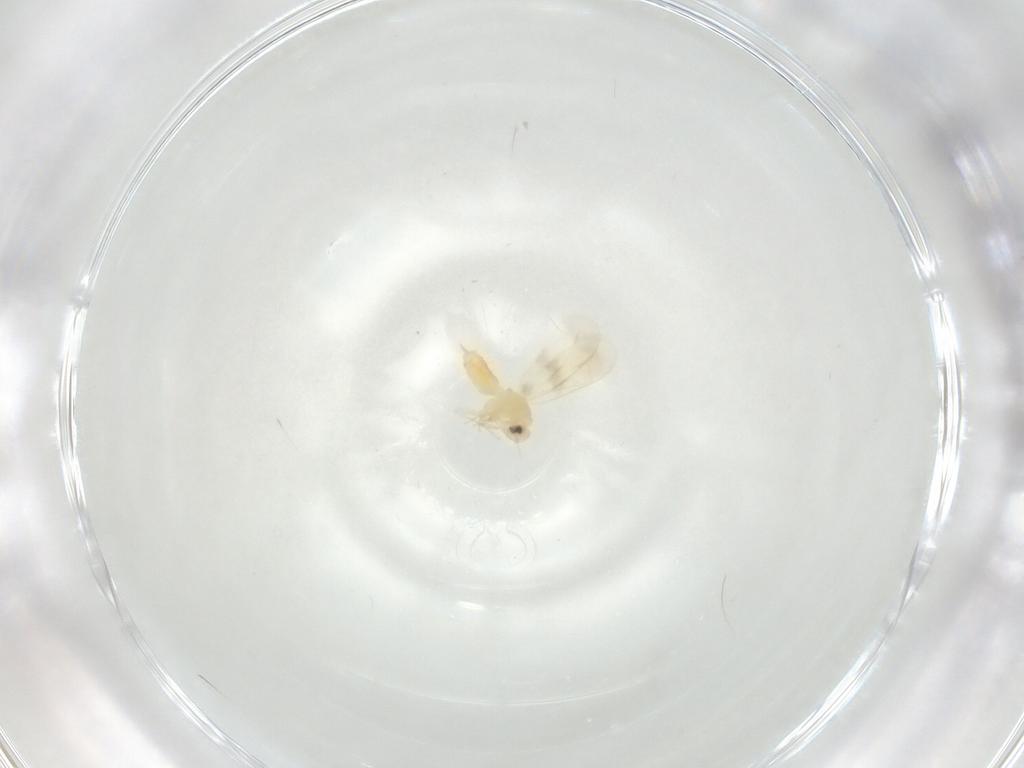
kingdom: Animalia
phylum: Arthropoda
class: Insecta
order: Hemiptera
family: Aleyrodidae
